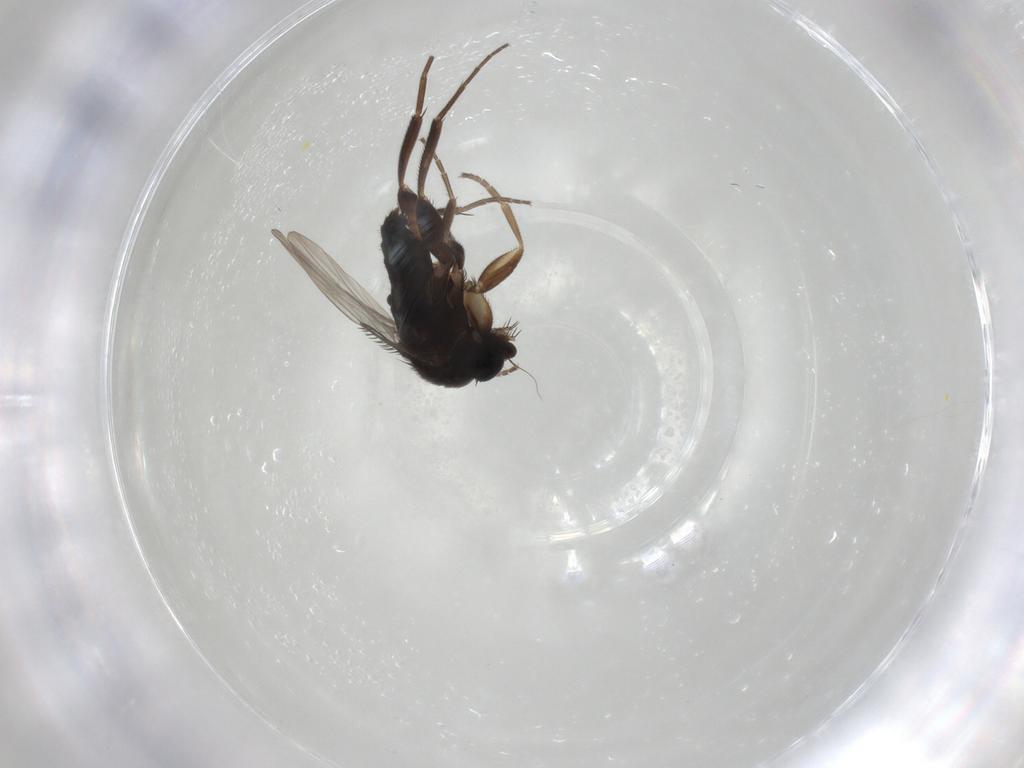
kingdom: Animalia
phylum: Arthropoda
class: Insecta
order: Diptera
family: Phoridae
